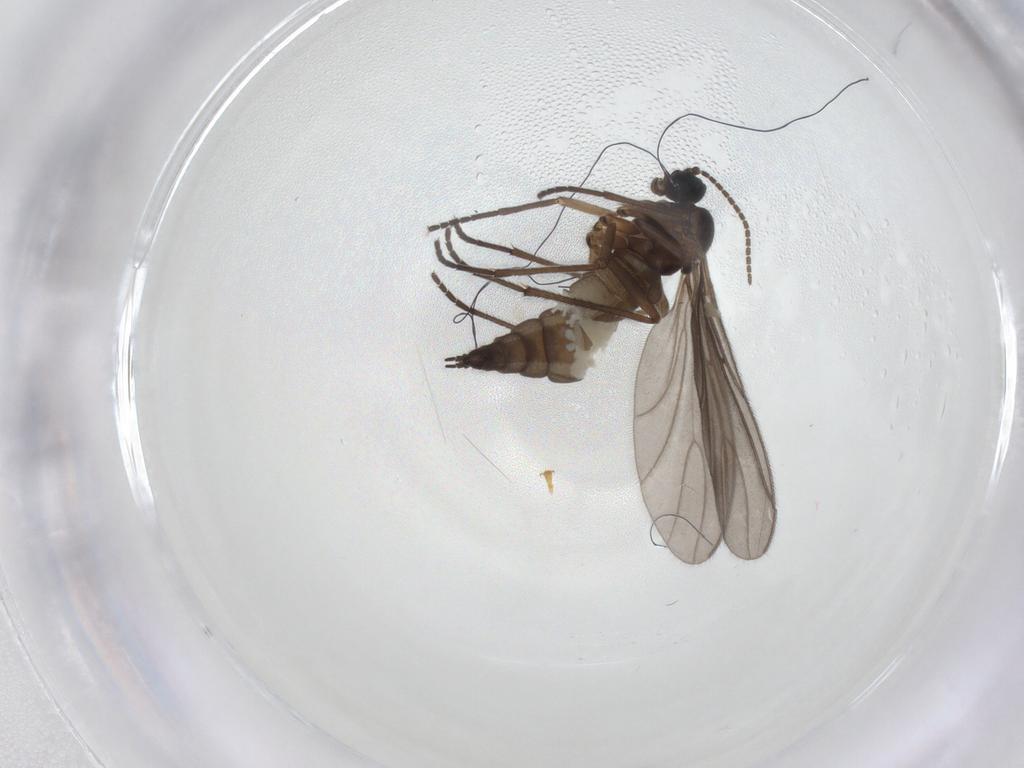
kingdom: Animalia
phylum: Arthropoda
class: Insecta
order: Diptera
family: Sciaridae
